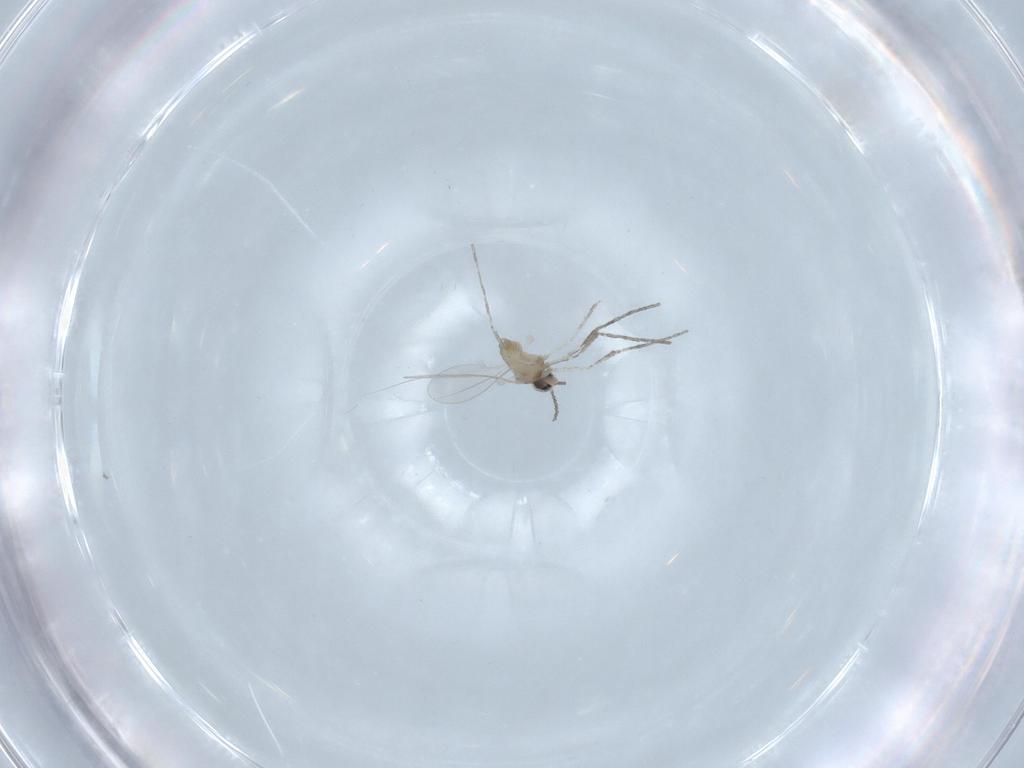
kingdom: Animalia
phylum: Arthropoda
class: Insecta
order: Diptera
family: Cecidomyiidae
